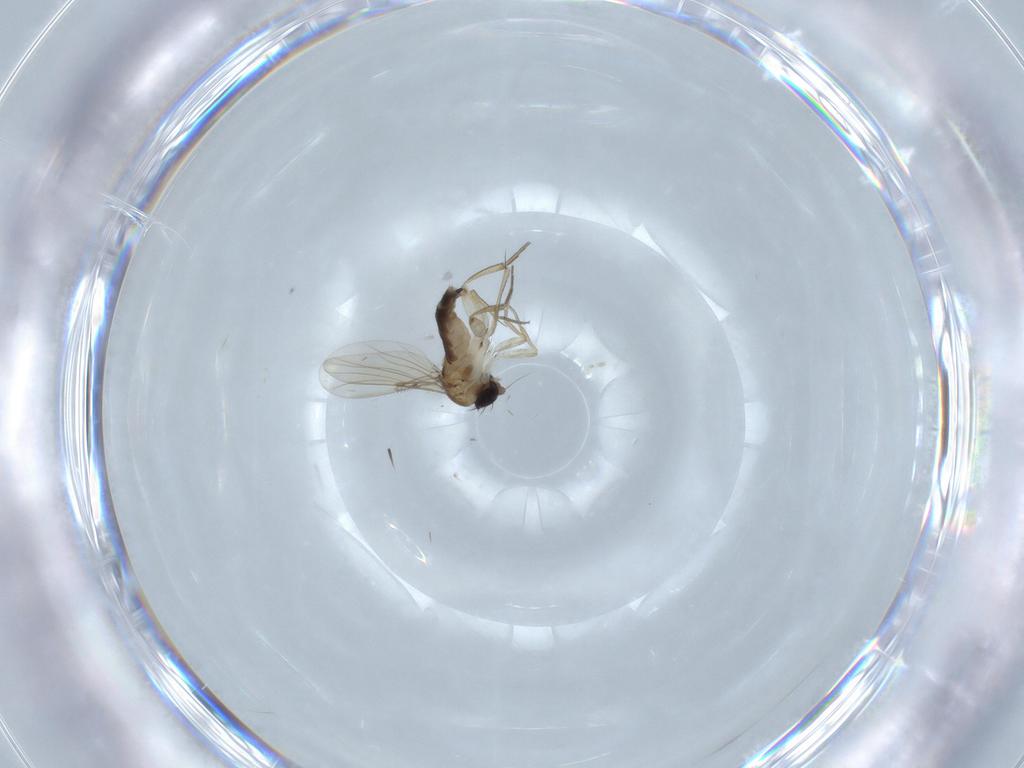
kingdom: Animalia
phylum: Arthropoda
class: Insecta
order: Diptera
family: Phoridae
